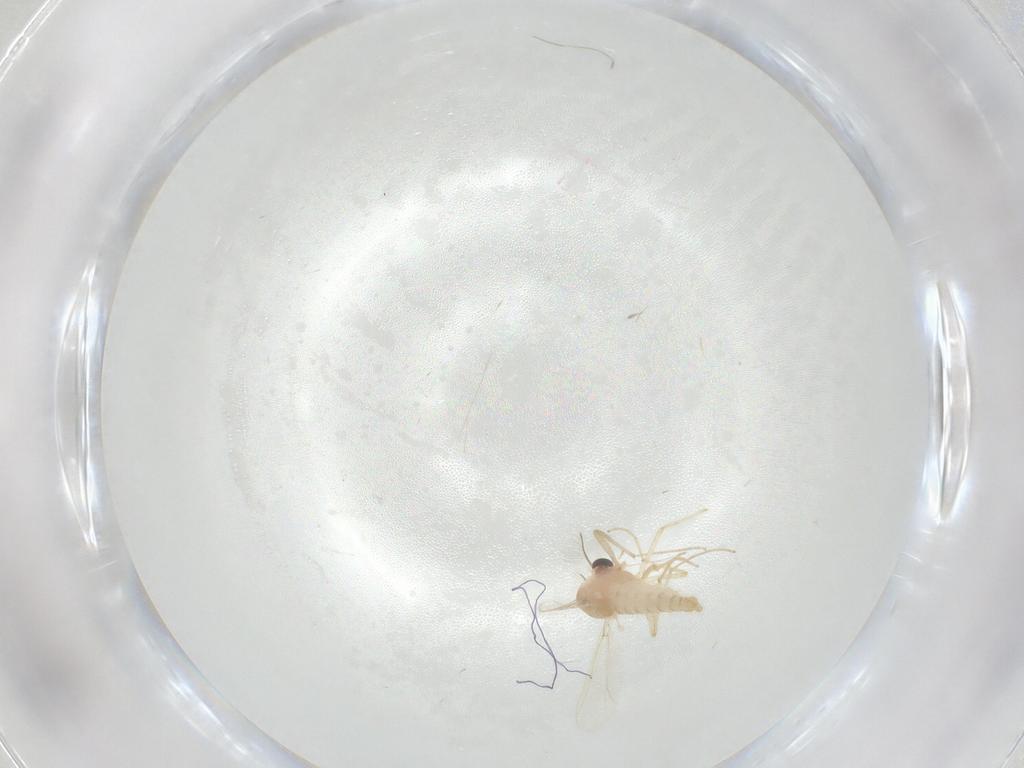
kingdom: Animalia
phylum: Arthropoda
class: Insecta
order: Diptera
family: Chironomidae
